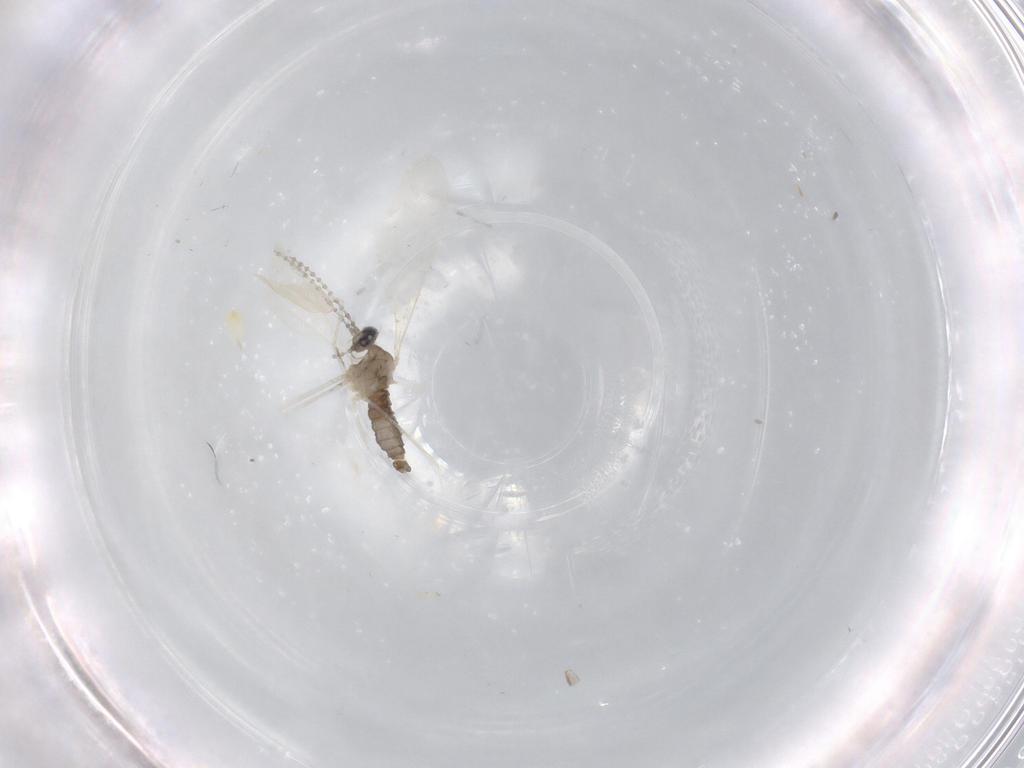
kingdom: Animalia
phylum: Arthropoda
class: Insecta
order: Diptera
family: Cecidomyiidae
